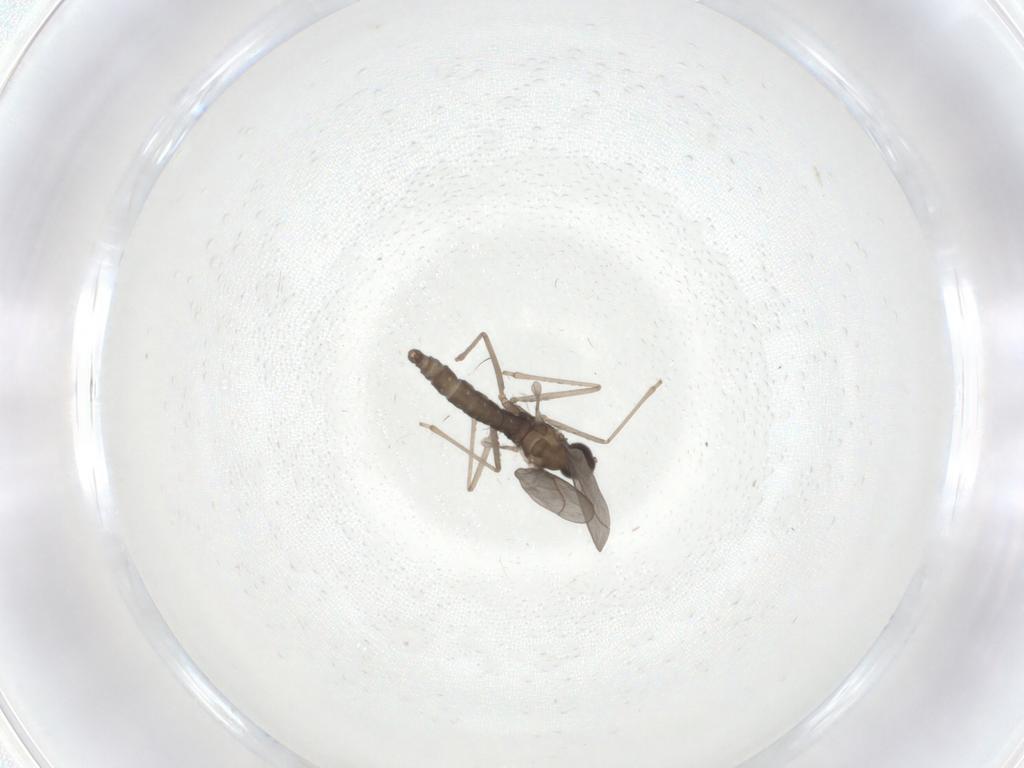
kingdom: Animalia
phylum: Arthropoda
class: Insecta
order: Diptera
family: Cecidomyiidae
